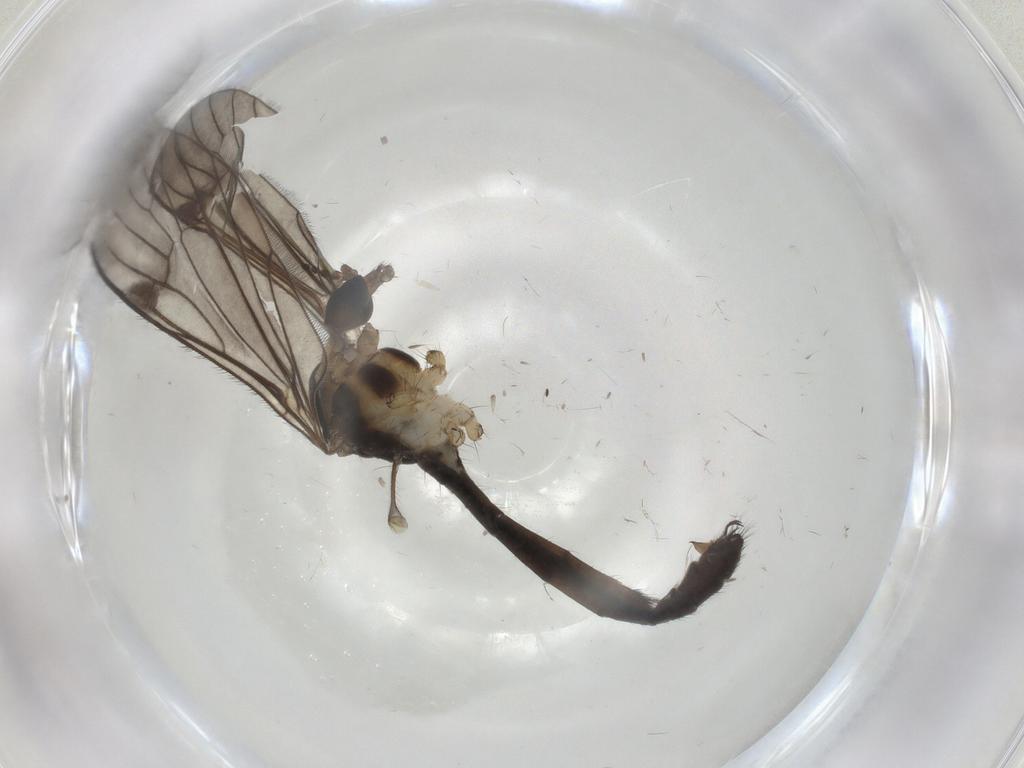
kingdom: Animalia
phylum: Arthropoda
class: Insecta
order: Diptera
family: Limoniidae
